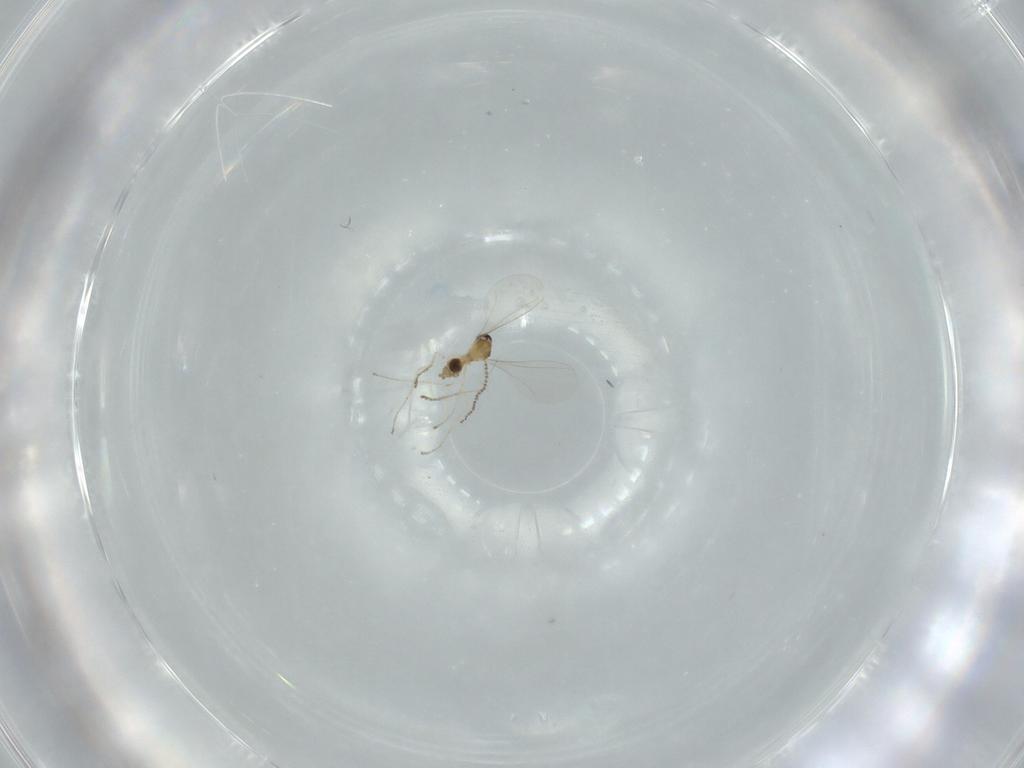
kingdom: Animalia
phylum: Arthropoda
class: Insecta
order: Diptera
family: Cecidomyiidae
